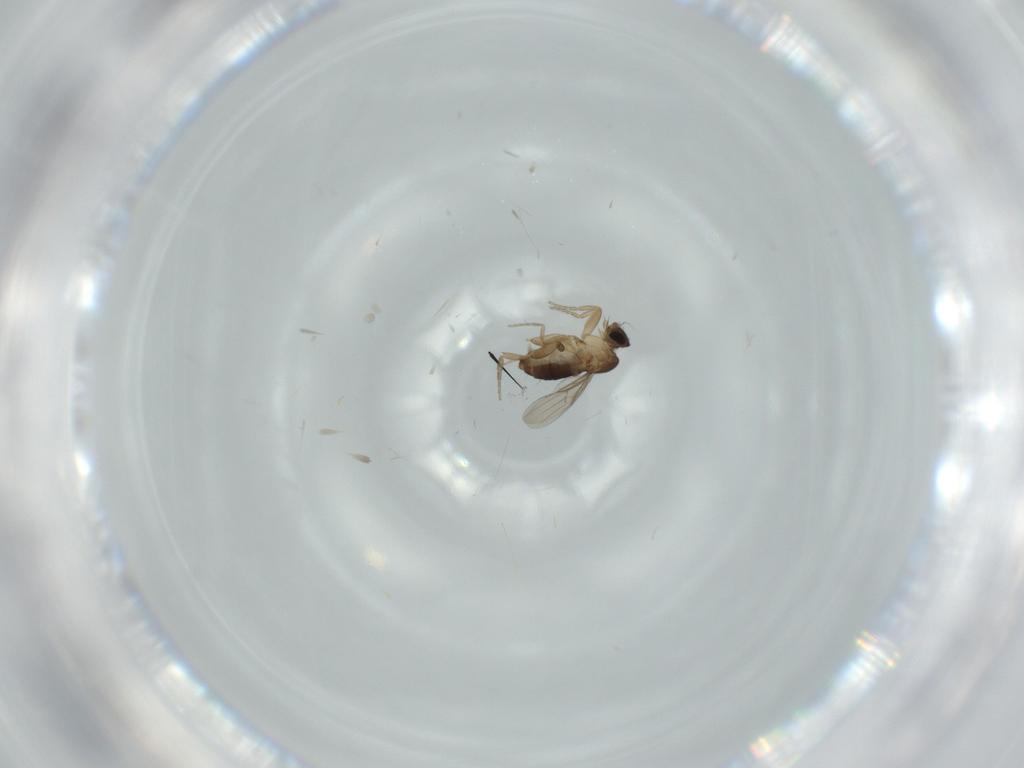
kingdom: Animalia
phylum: Arthropoda
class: Insecta
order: Diptera
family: Phoridae
